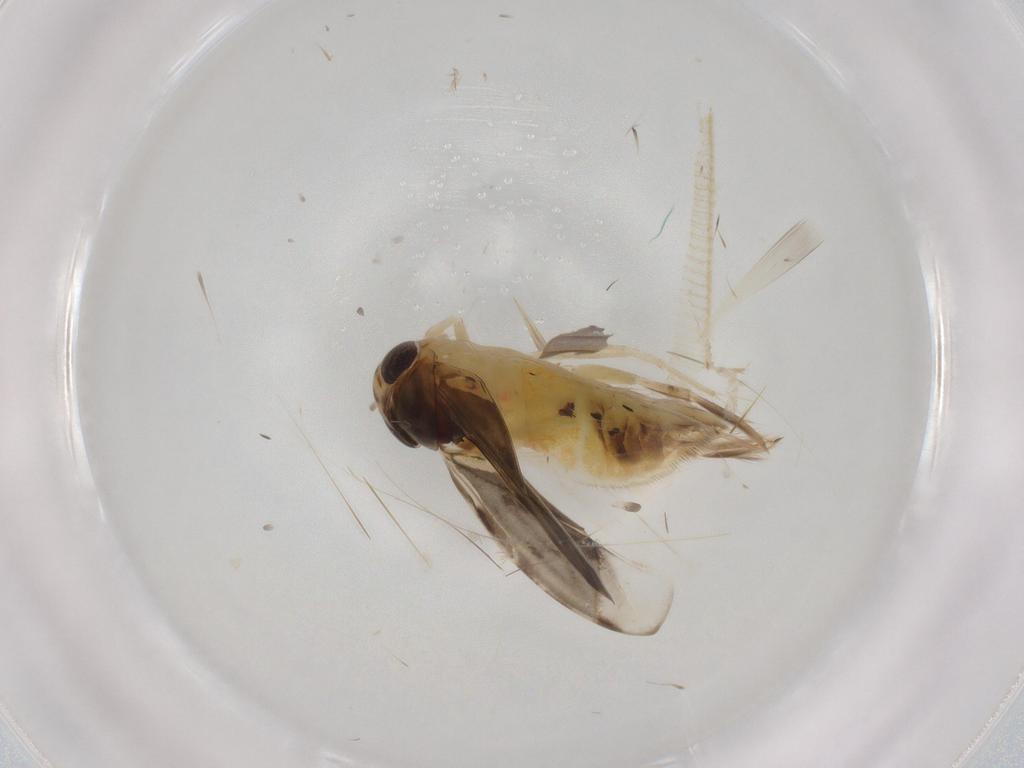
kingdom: Animalia
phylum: Arthropoda
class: Insecta
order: Hemiptera
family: Corixidae
